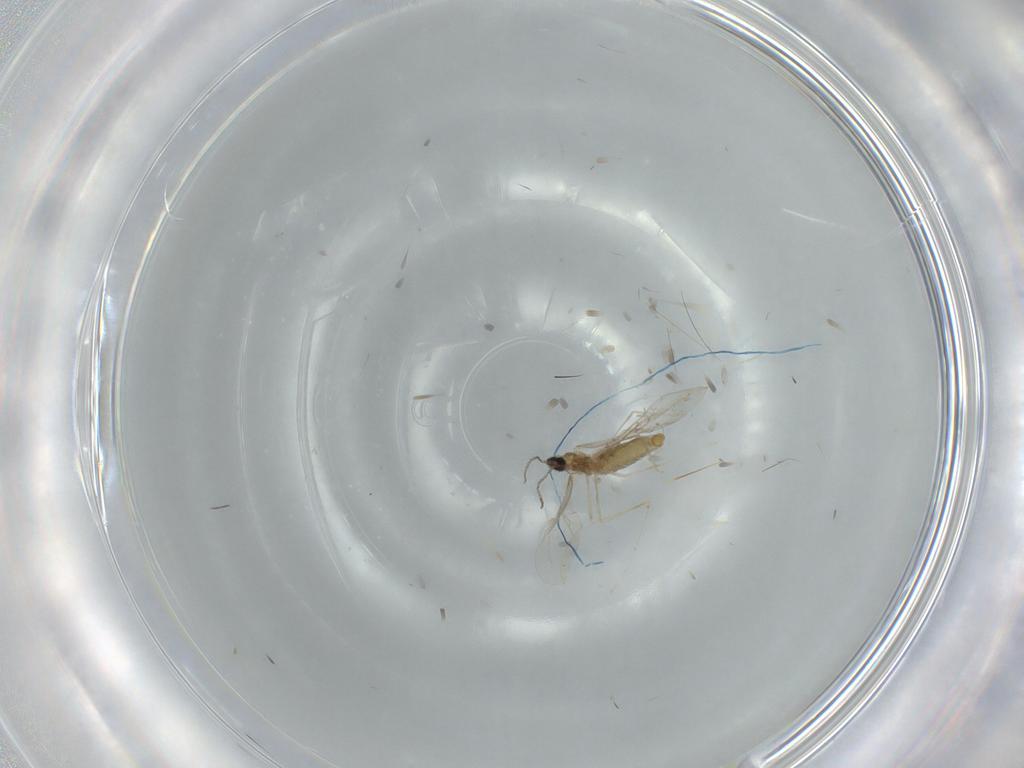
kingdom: Animalia
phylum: Arthropoda
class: Insecta
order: Diptera
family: Cecidomyiidae
